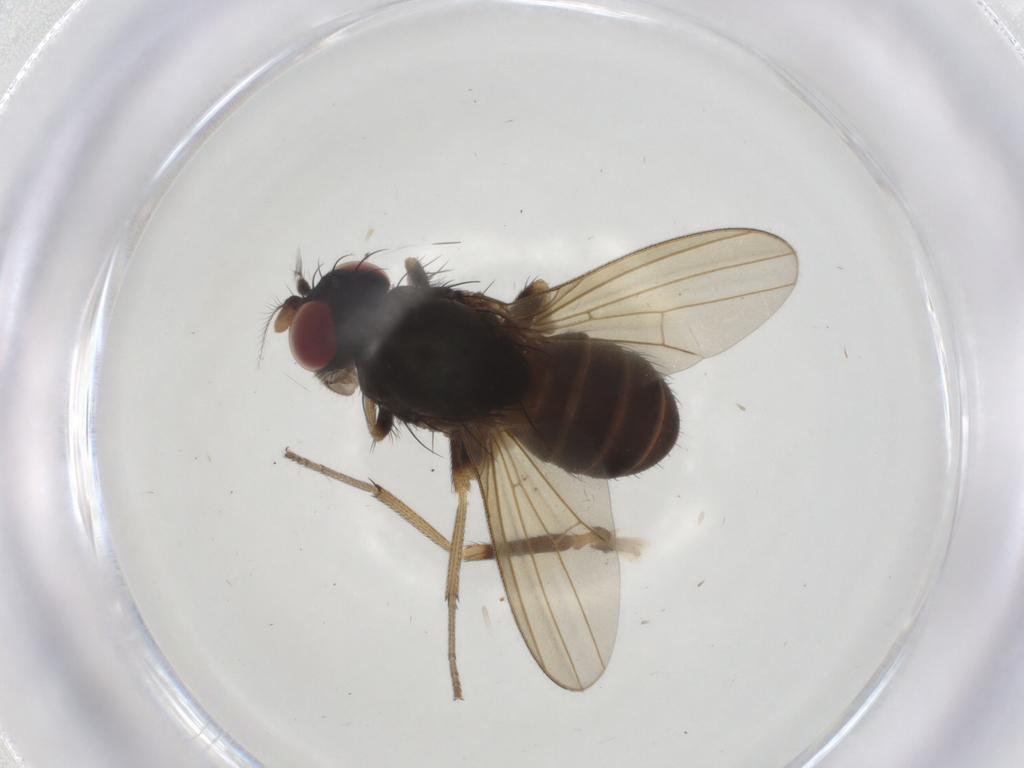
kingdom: Animalia
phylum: Arthropoda
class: Insecta
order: Diptera
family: Lauxaniidae
